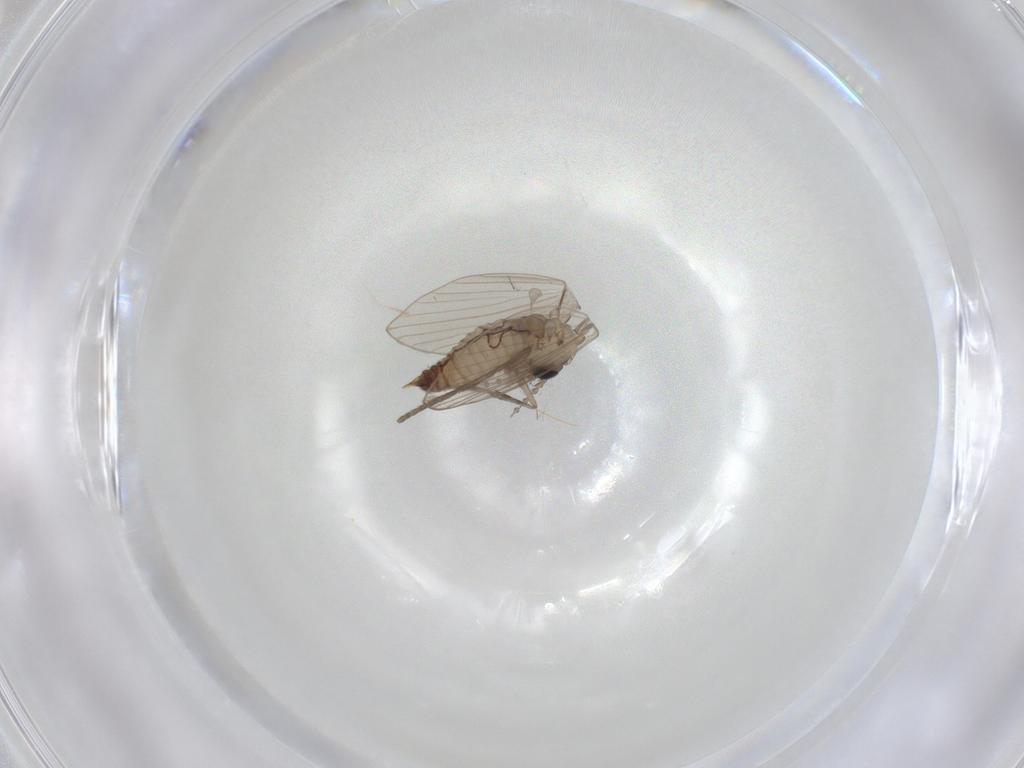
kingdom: Animalia
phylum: Arthropoda
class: Insecta
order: Diptera
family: Psychodidae
